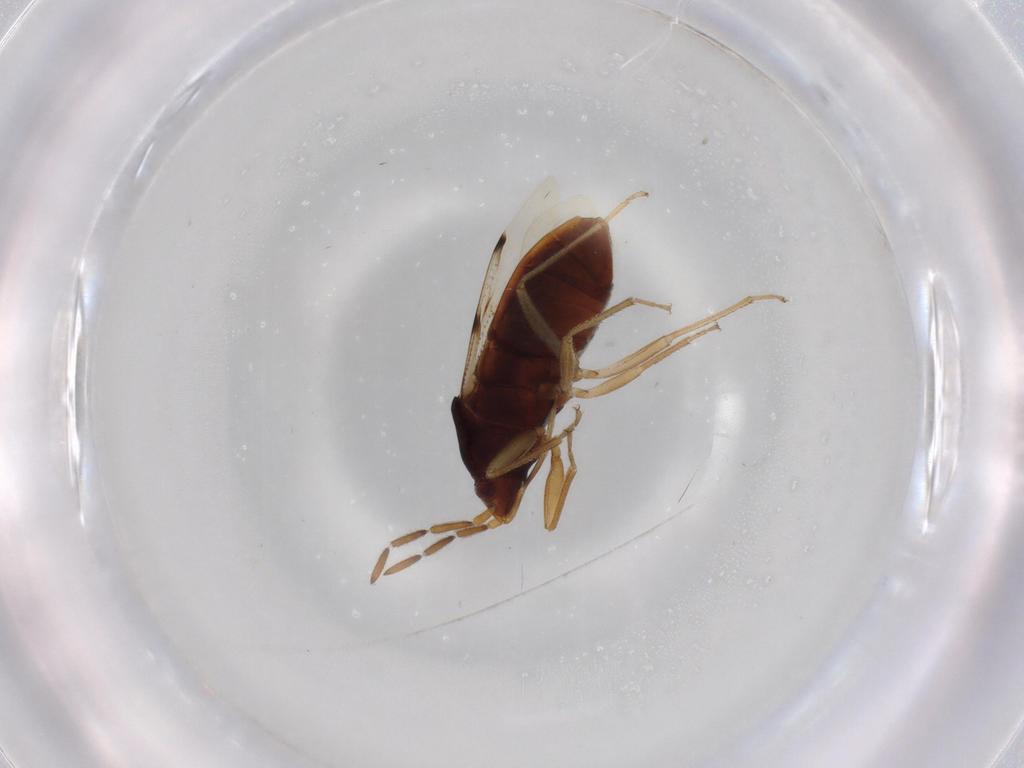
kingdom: Animalia
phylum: Arthropoda
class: Insecta
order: Hemiptera
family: Rhyparochromidae
